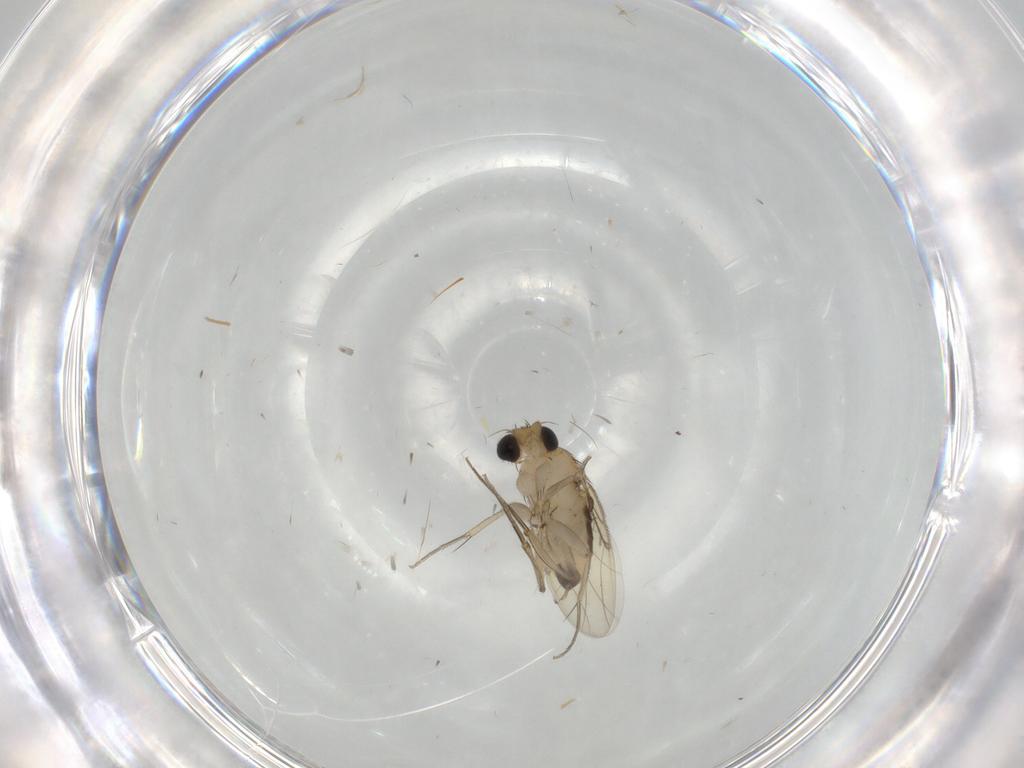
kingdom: Animalia
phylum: Arthropoda
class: Insecta
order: Diptera
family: Phoridae
